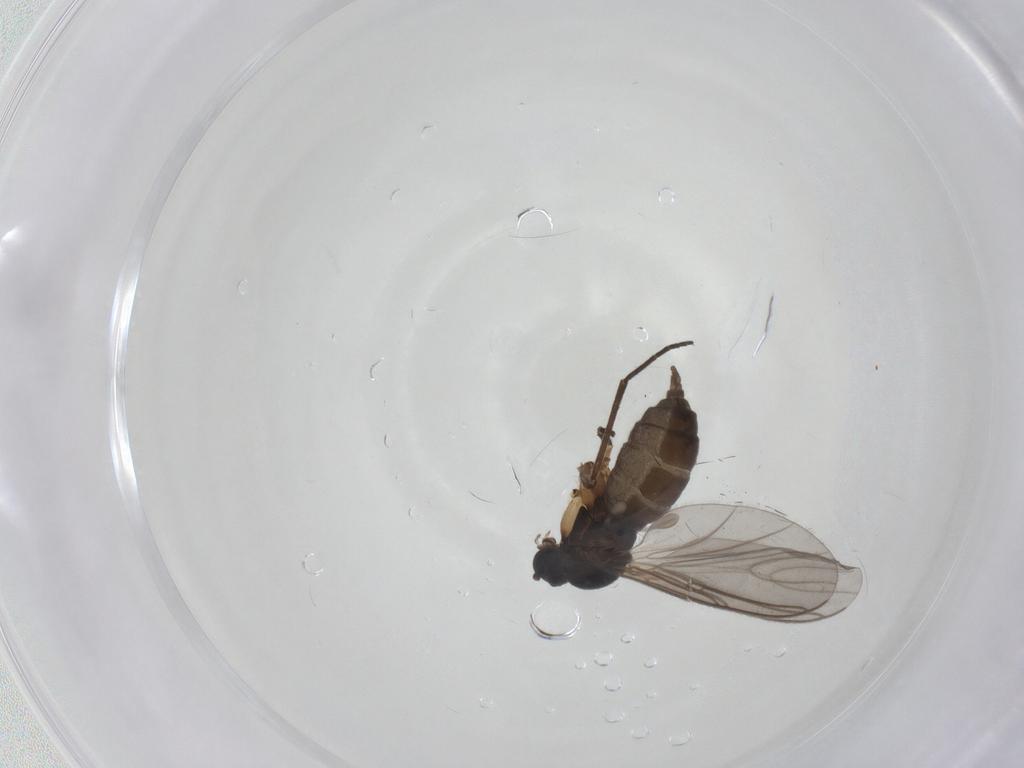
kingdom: Animalia
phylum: Arthropoda
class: Insecta
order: Diptera
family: Sciaridae
